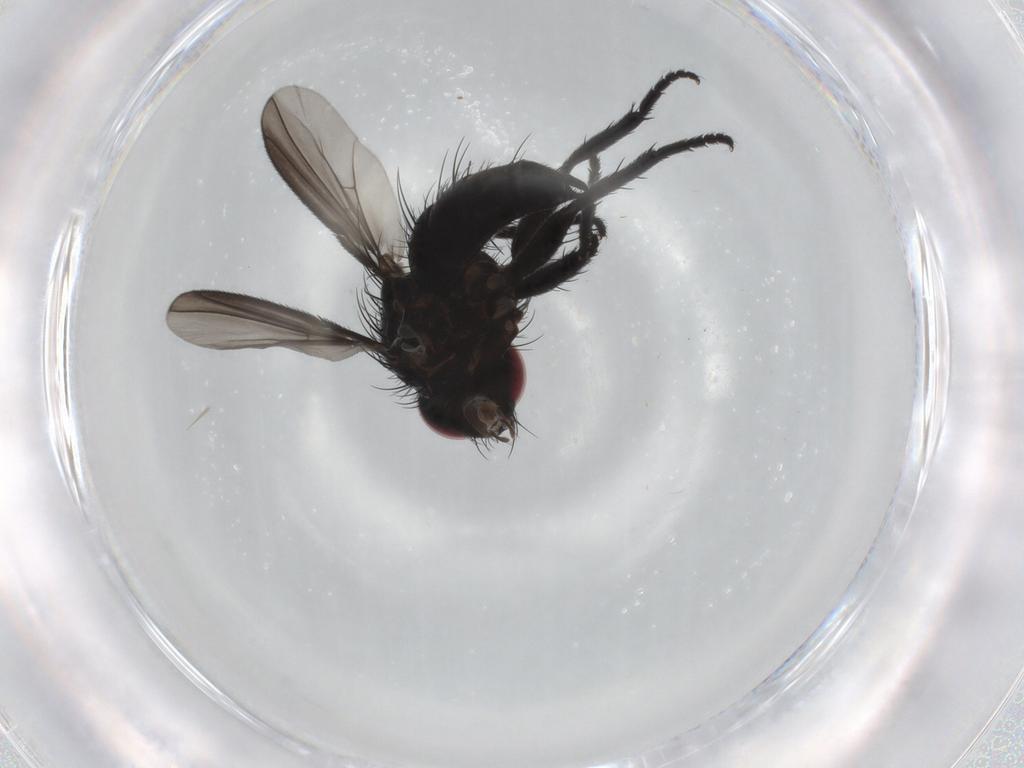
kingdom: Animalia
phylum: Arthropoda
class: Insecta
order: Diptera
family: Tachinidae
